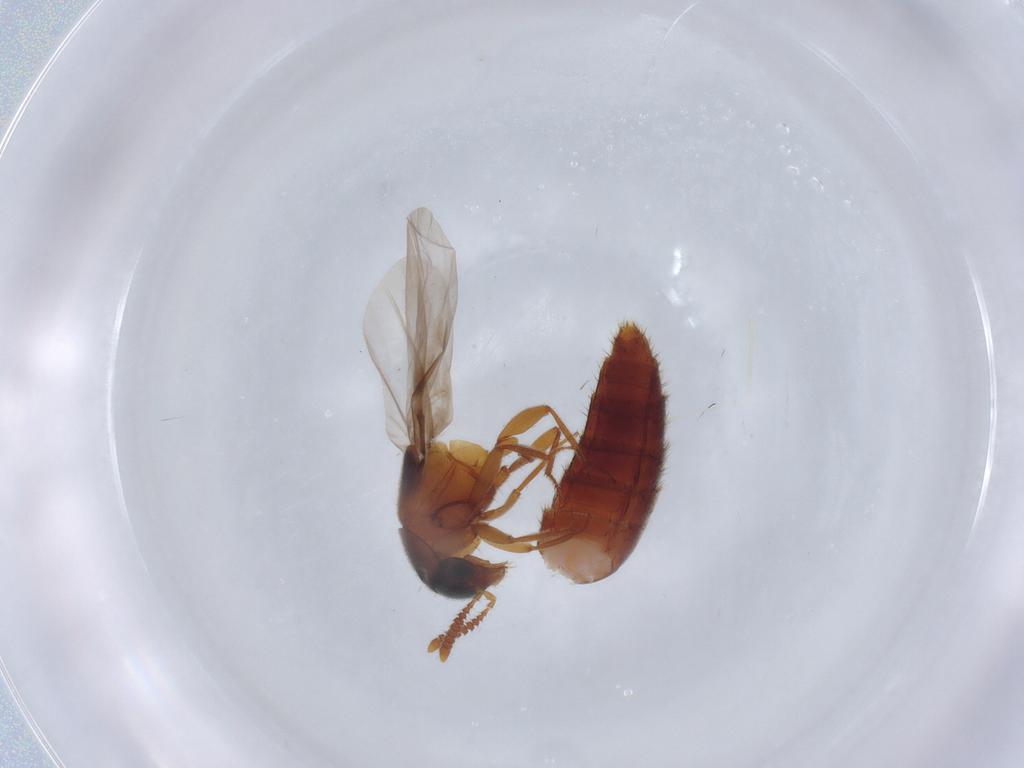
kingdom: Animalia
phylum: Arthropoda
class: Insecta
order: Coleoptera
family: Staphylinidae
